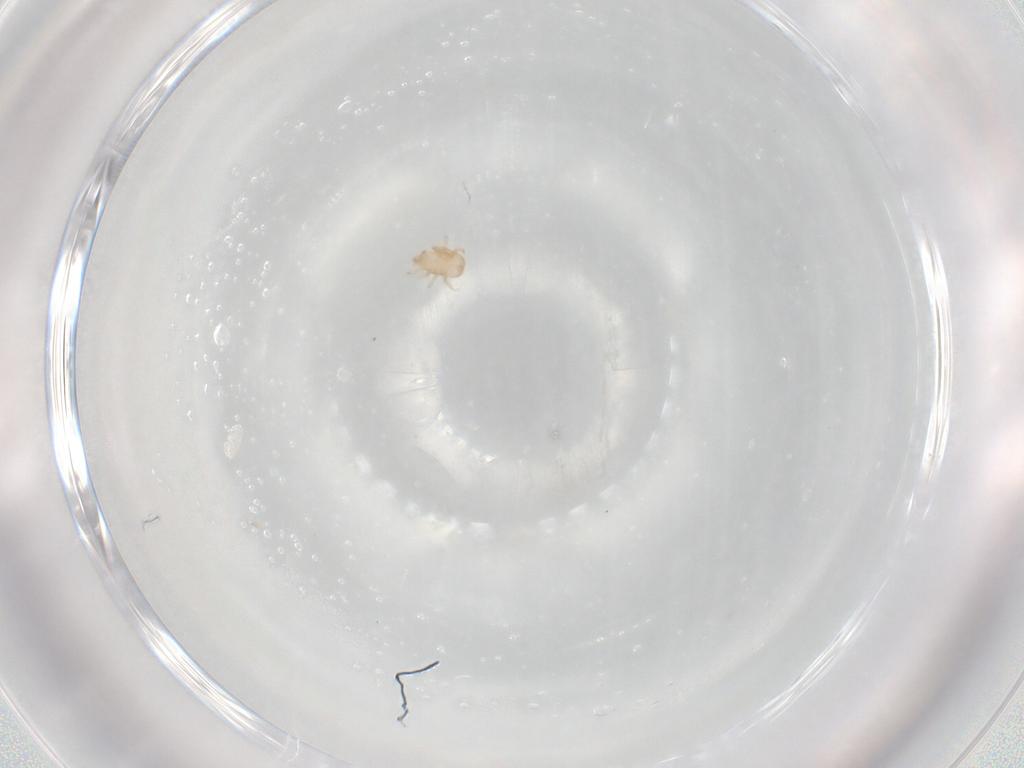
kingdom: Animalia
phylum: Arthropoda
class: Arachnida
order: Mesostigmata
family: Ascidae
